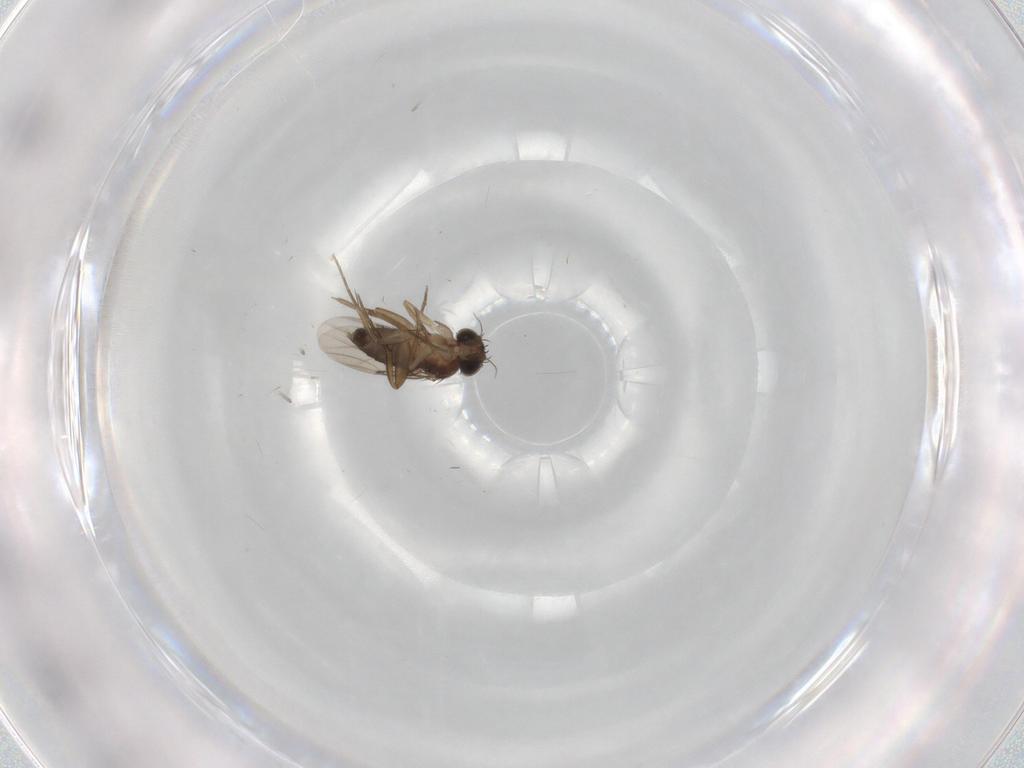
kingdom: Animalia
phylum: Arthropoda
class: Insecta
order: Diptera
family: Phoridae
